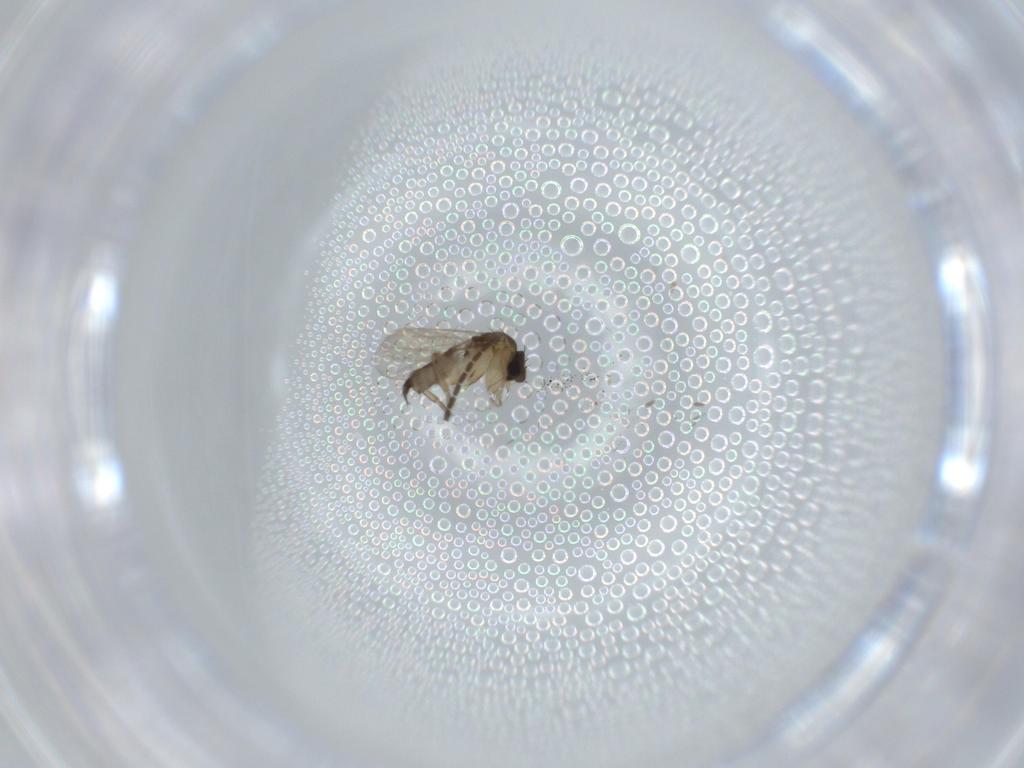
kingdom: Animalia
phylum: Arthropoda
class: Insecta
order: Diptera
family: Phoridae
